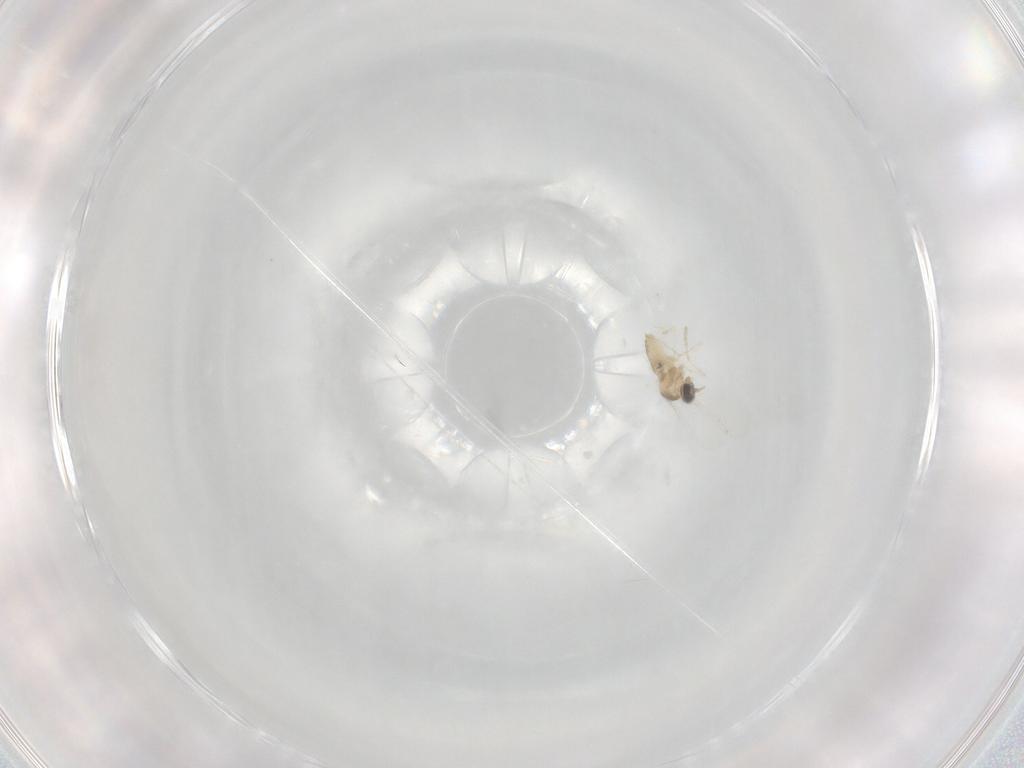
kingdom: Animalia
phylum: Arthropoda
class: Insecta
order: Diptera
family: Cecidomyiidae
